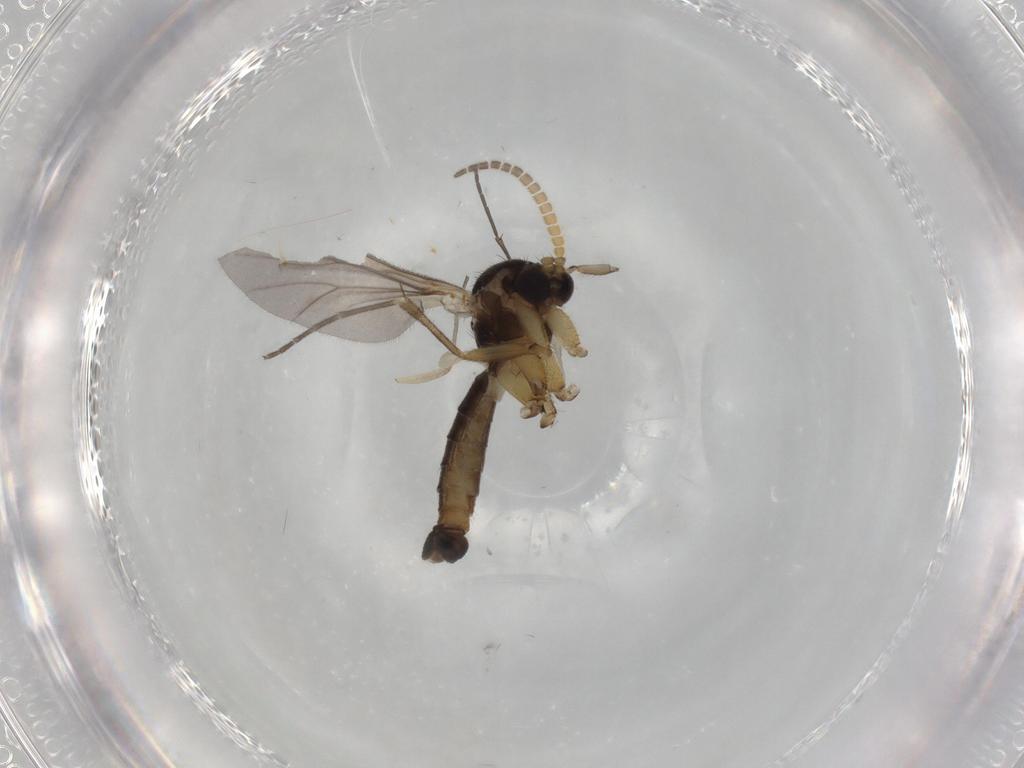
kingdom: Animalia
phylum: Arthropoda
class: Insecta
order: Diptera
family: Phoridae
